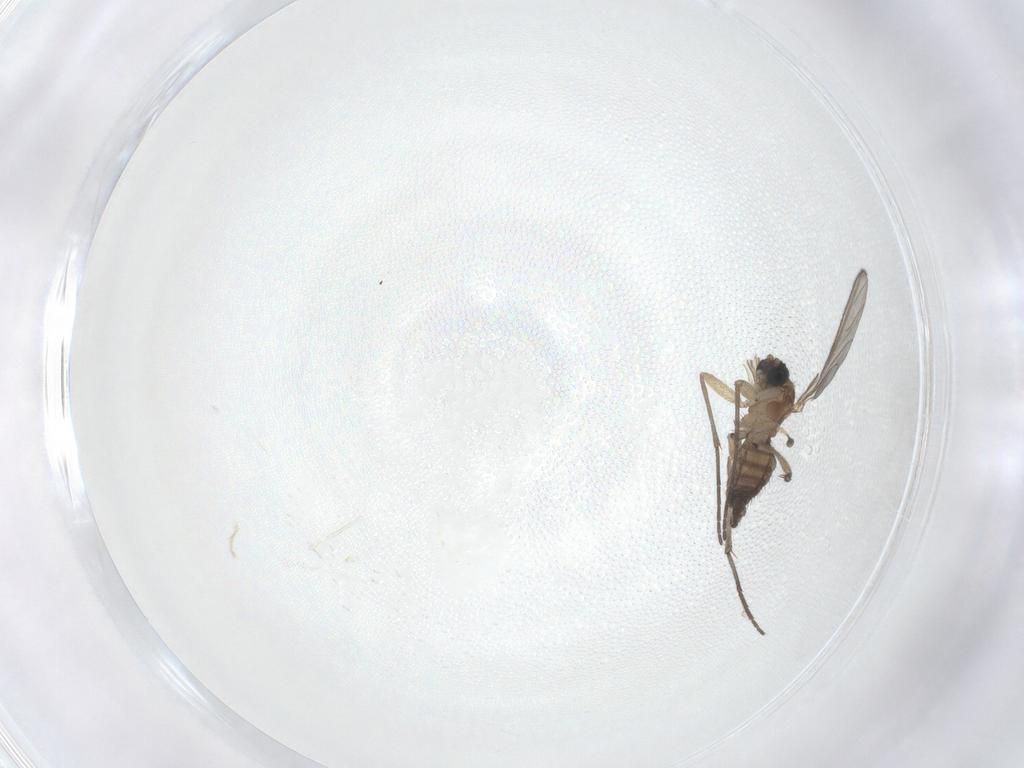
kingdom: Animalia
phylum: Arthropoda
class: Insecta
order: Diptera
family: Sciaridae
